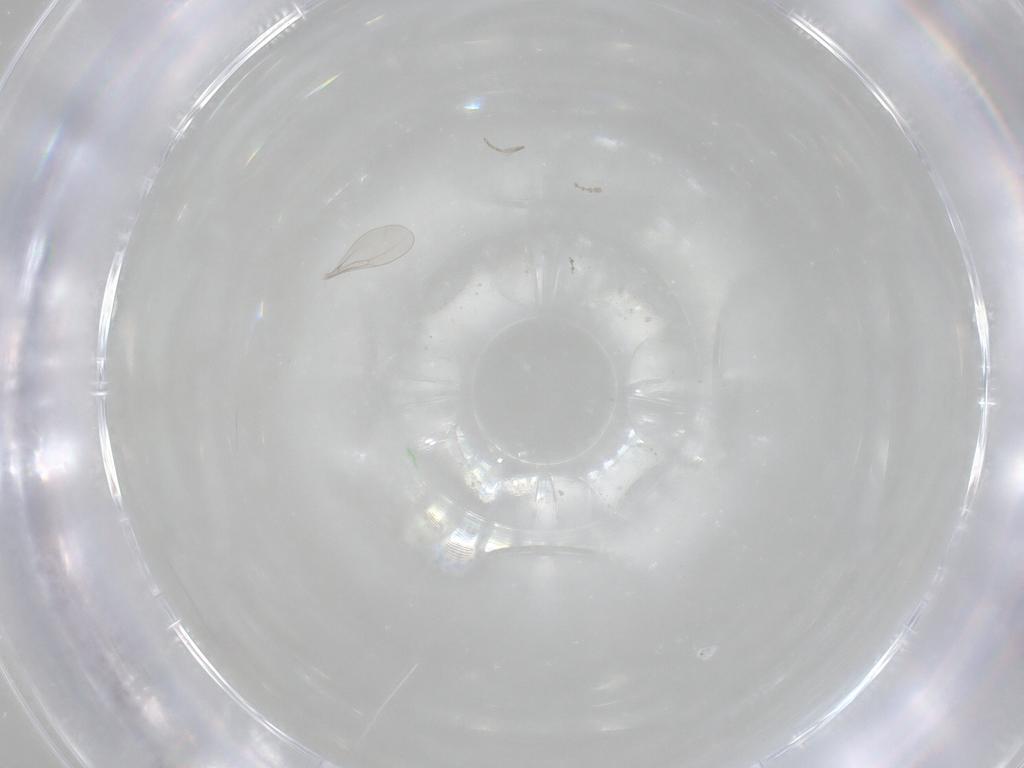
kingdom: Animalia
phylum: Arthropoda
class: Insecta
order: Diptera
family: Cecidomyiidae
